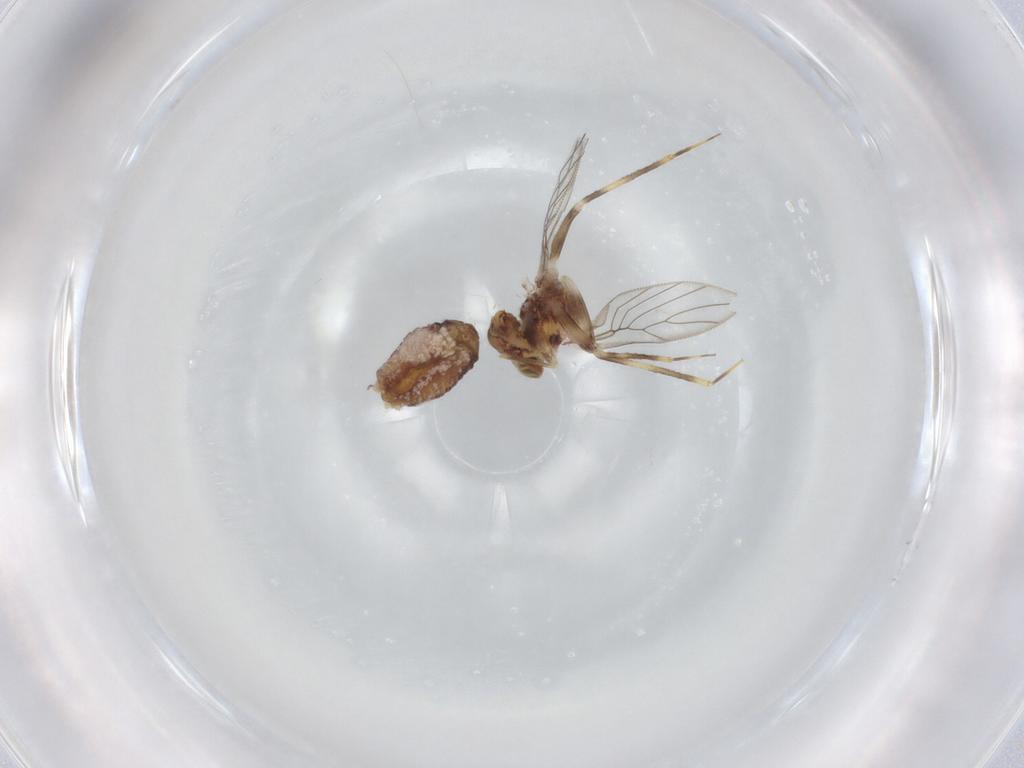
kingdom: Animalia
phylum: Arthropoda
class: Insecta
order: Psocodea
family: Lepidopsocidae
